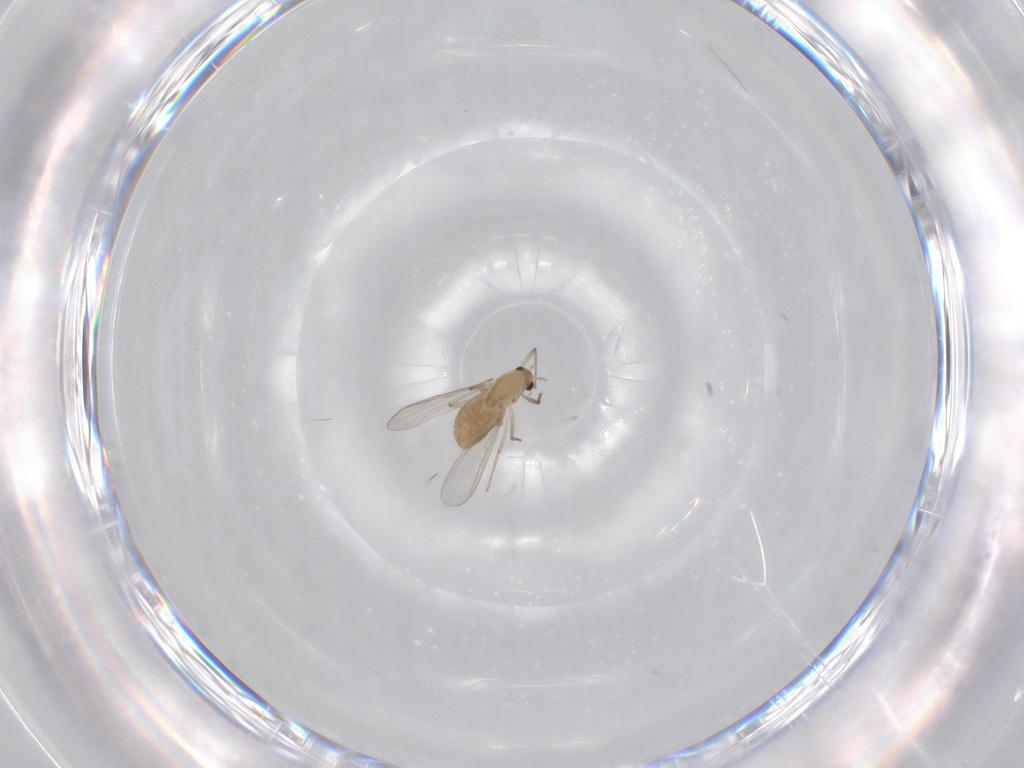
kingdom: Animalia
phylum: Arthropoda
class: Insecta
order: Diptera
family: Chironomidae
